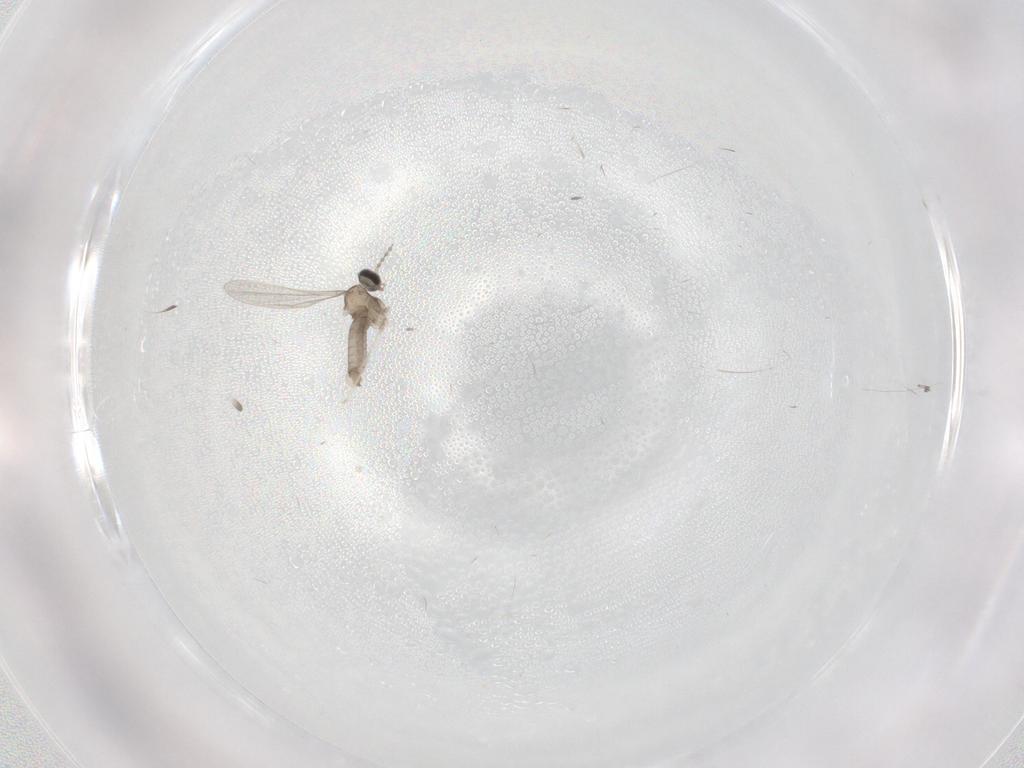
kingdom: Animalia
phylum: Arthropoda
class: Insecta
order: Diptera
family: Cecidomyiidae
